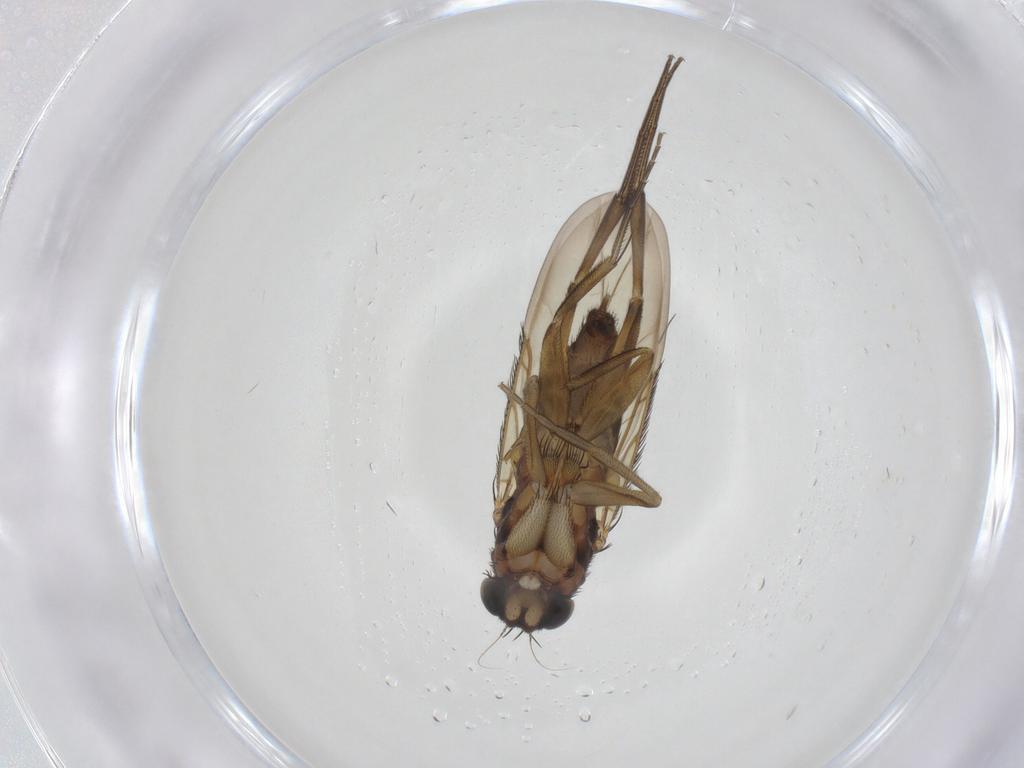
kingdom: Animalia
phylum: Arthropoda
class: Insecta
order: Diptera
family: Phoridae
